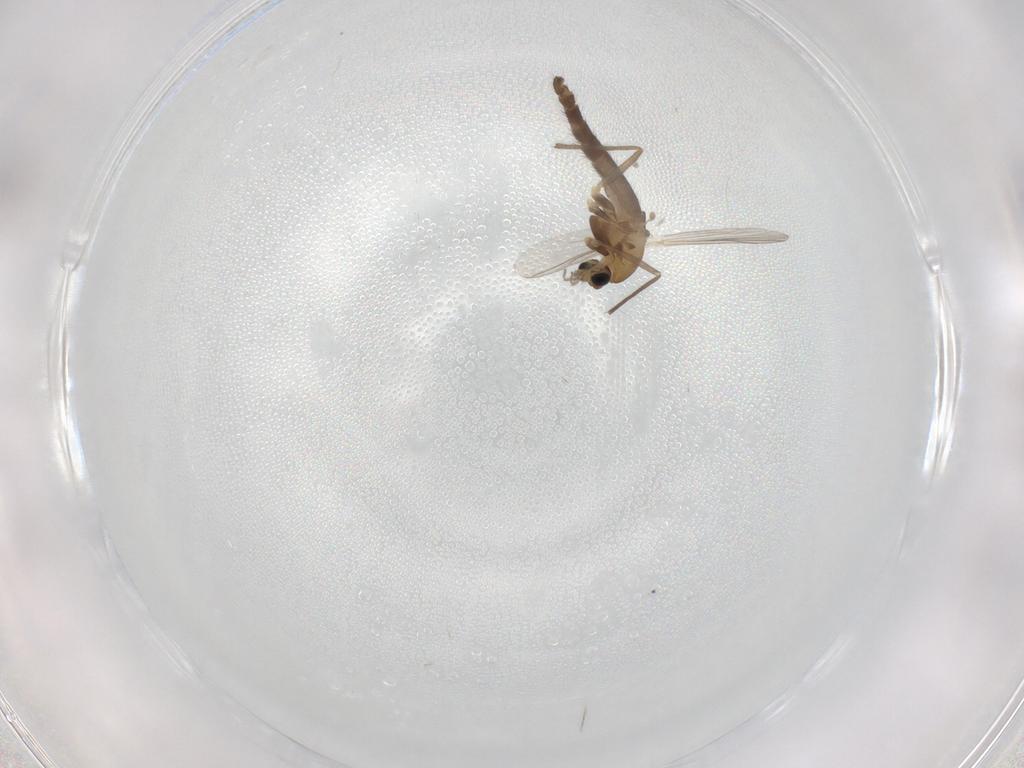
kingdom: Animalia
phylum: Arthropoda
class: Insecta
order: Diptera
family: Chironomidae
